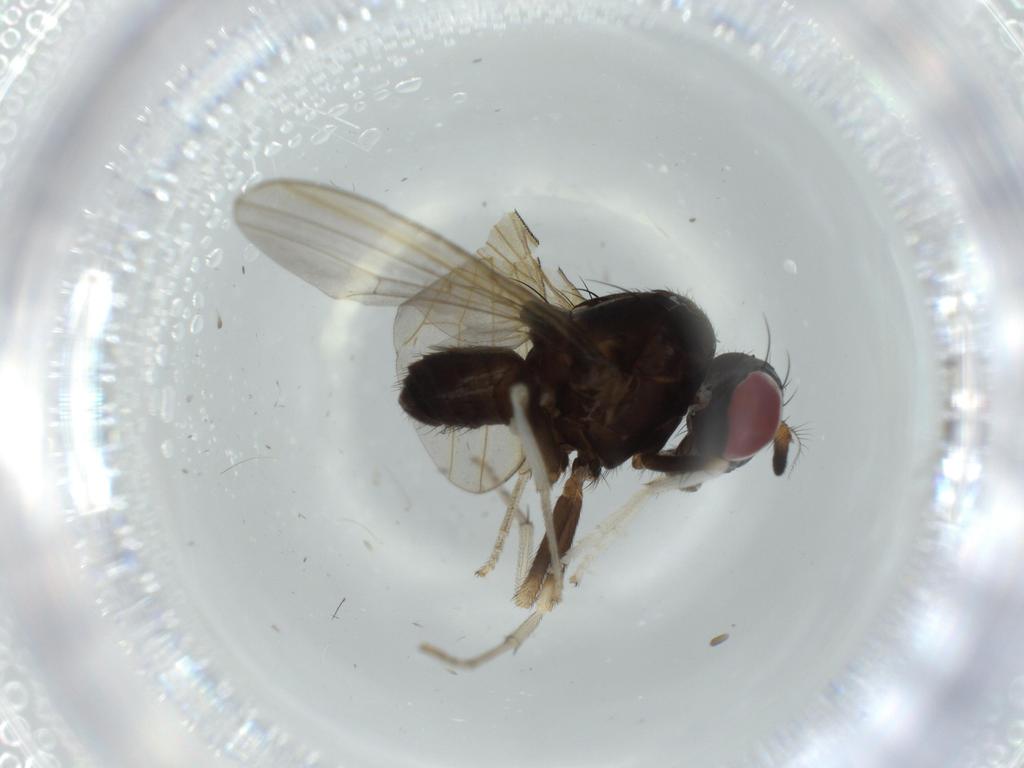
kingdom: Animalia
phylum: Arthropoda
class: Insecta
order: Diptera
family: Lauxaniidae
